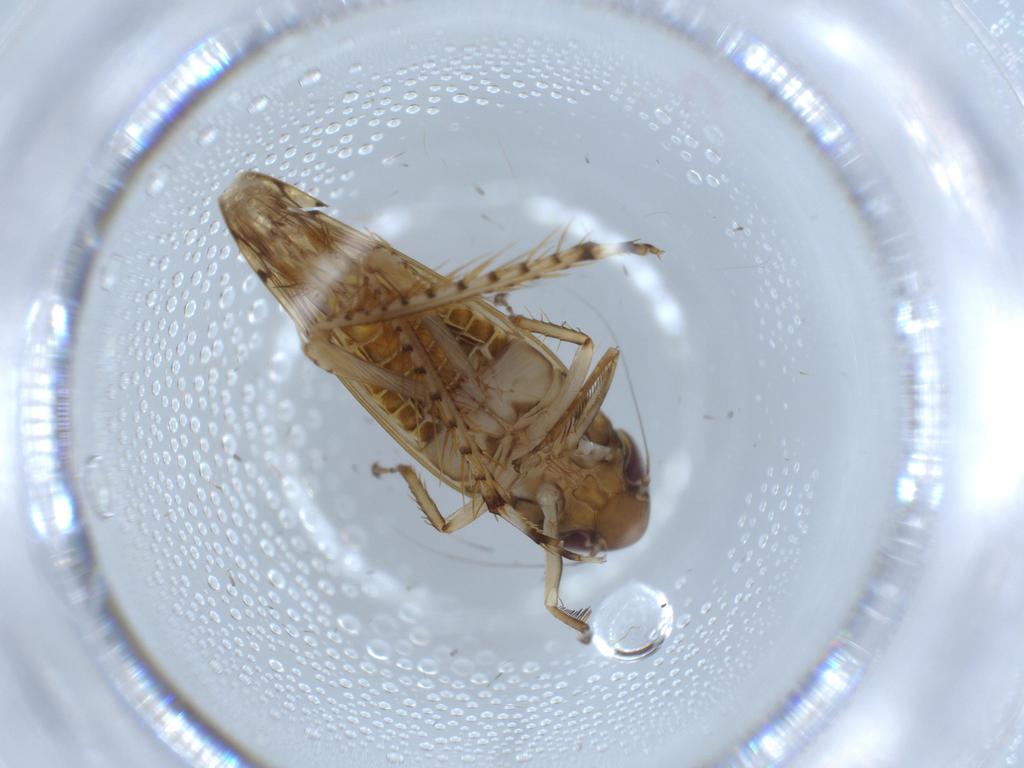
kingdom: Animalia
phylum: Arthropoda
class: Insecta
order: Hemiptera
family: Cicadellidae
